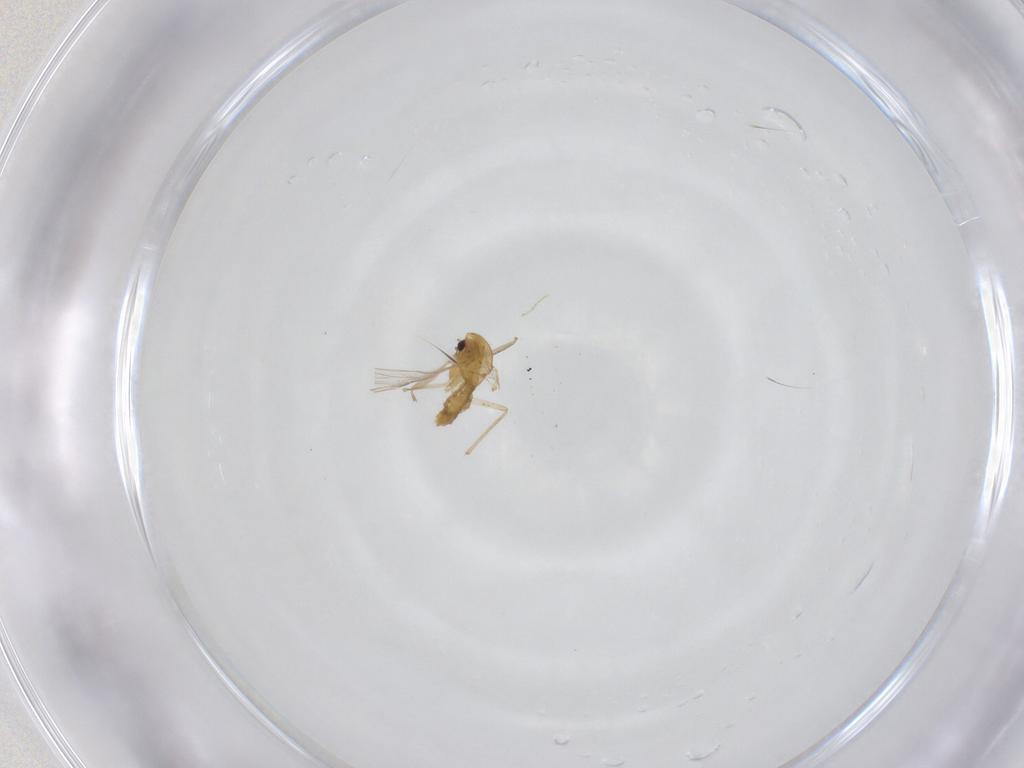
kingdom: Animalia
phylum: Arthropoda
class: Insecta
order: Diptera
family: Chironomidae
